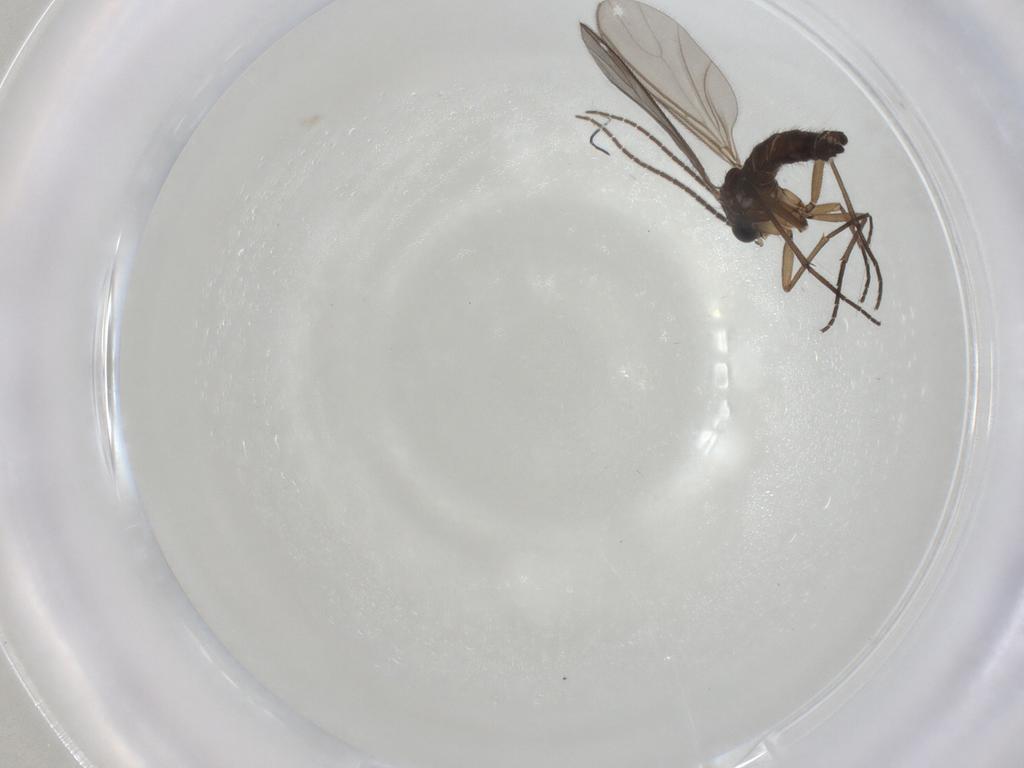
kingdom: Animalia
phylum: Arthropoda
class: Insecta
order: Diptera
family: Sciaridae
